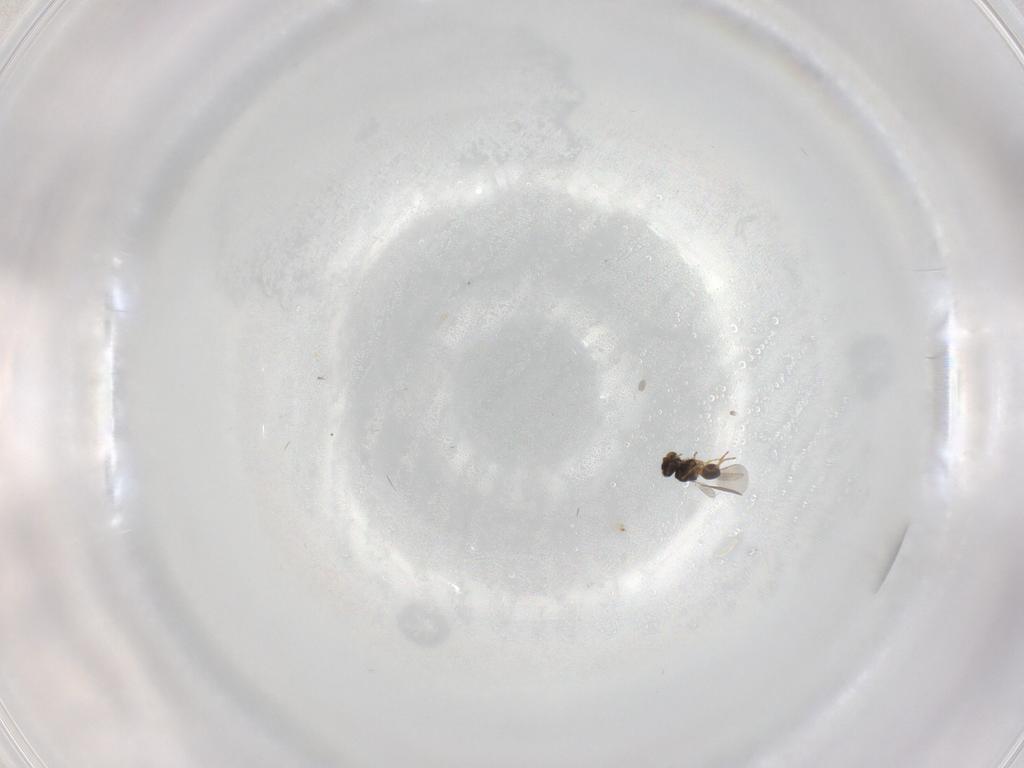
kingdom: Animalia
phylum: Arthropoda
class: Insecta
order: Hymenoptera
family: Platygastridae
